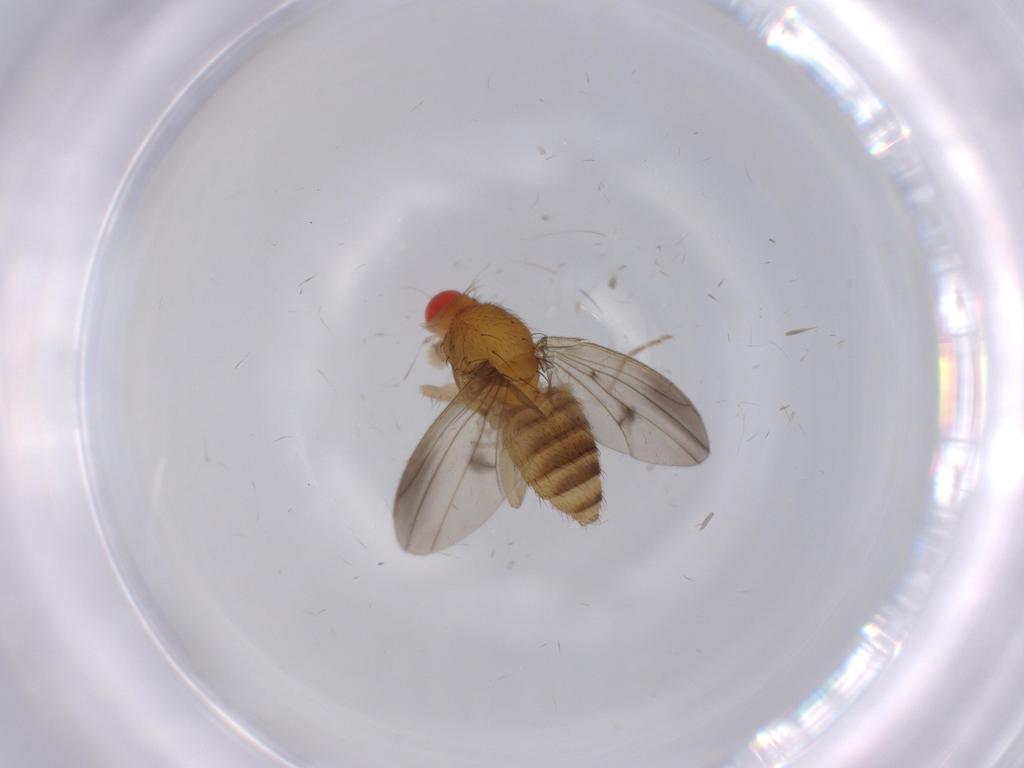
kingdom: Animalia
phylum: Arthropoda
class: Insecta
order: Diptera
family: Drosophilidae
